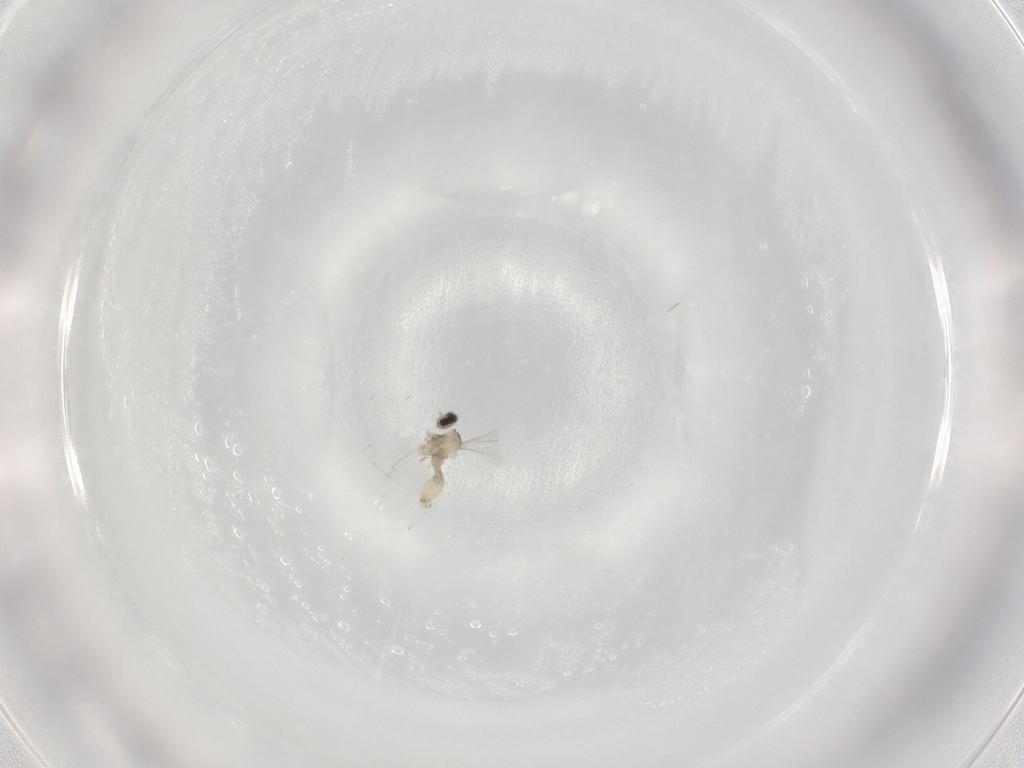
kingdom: Animalia
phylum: Arthropoda
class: Insecta
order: Diptera
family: Cecidomyiidae
